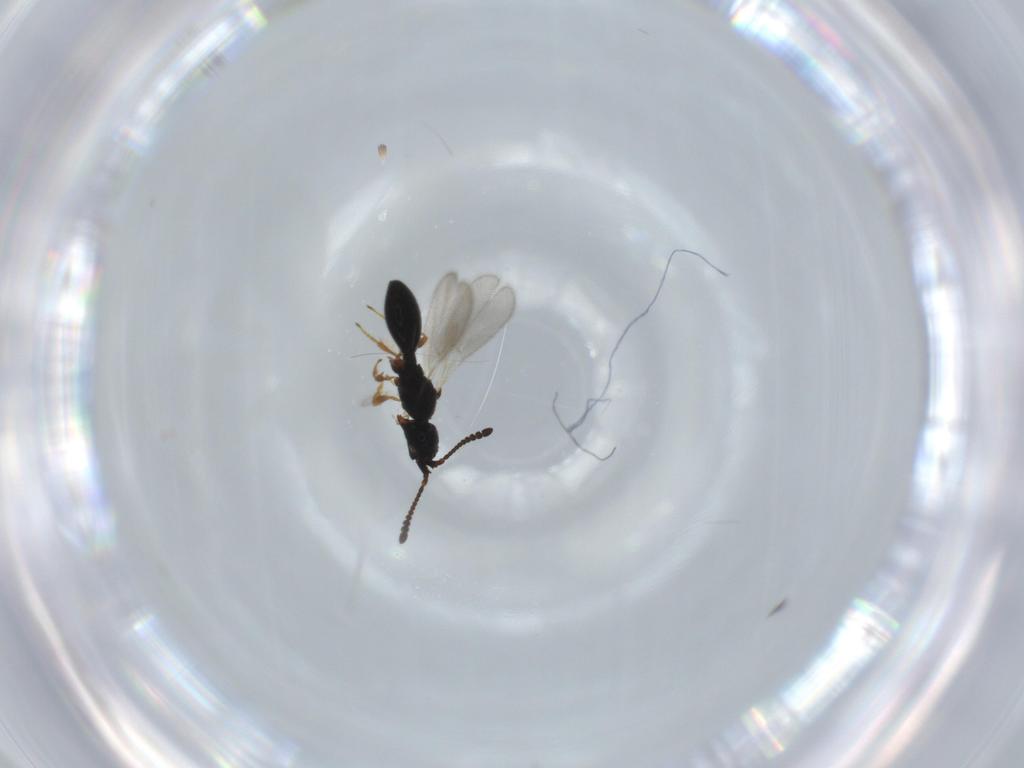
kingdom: Animalia
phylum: Arthropoda
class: Insecta
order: Hymenoptera
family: Diapriidae
